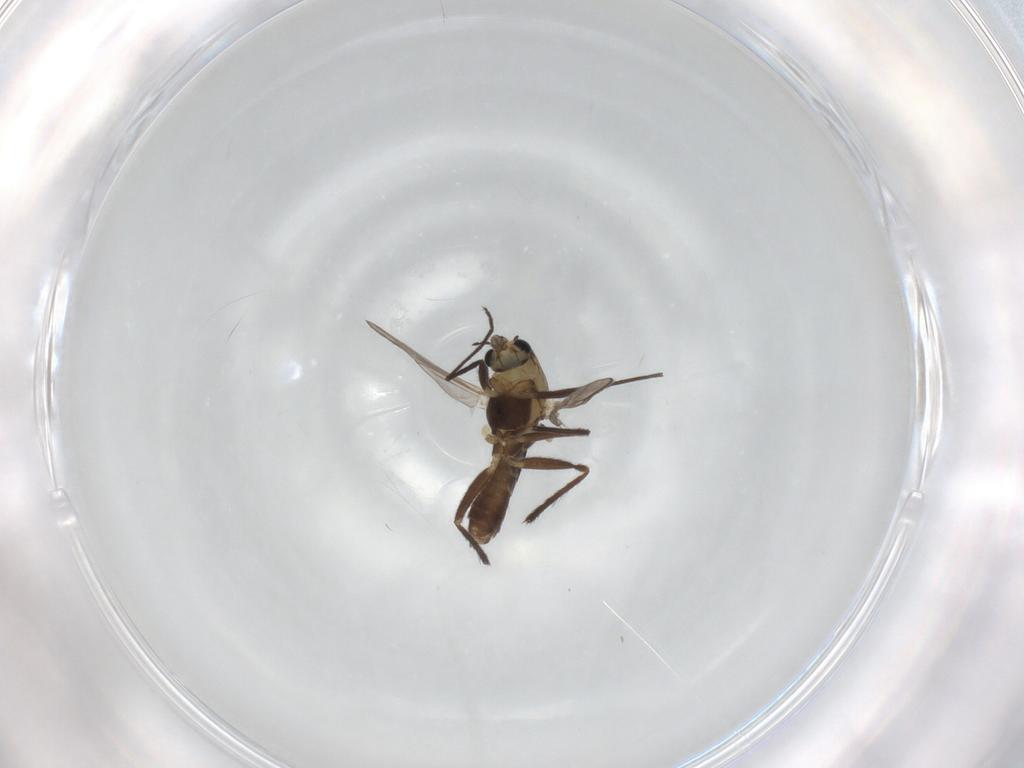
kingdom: Animalia
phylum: Arthropoda
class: Insecta
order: Diptera
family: Chironomidae
